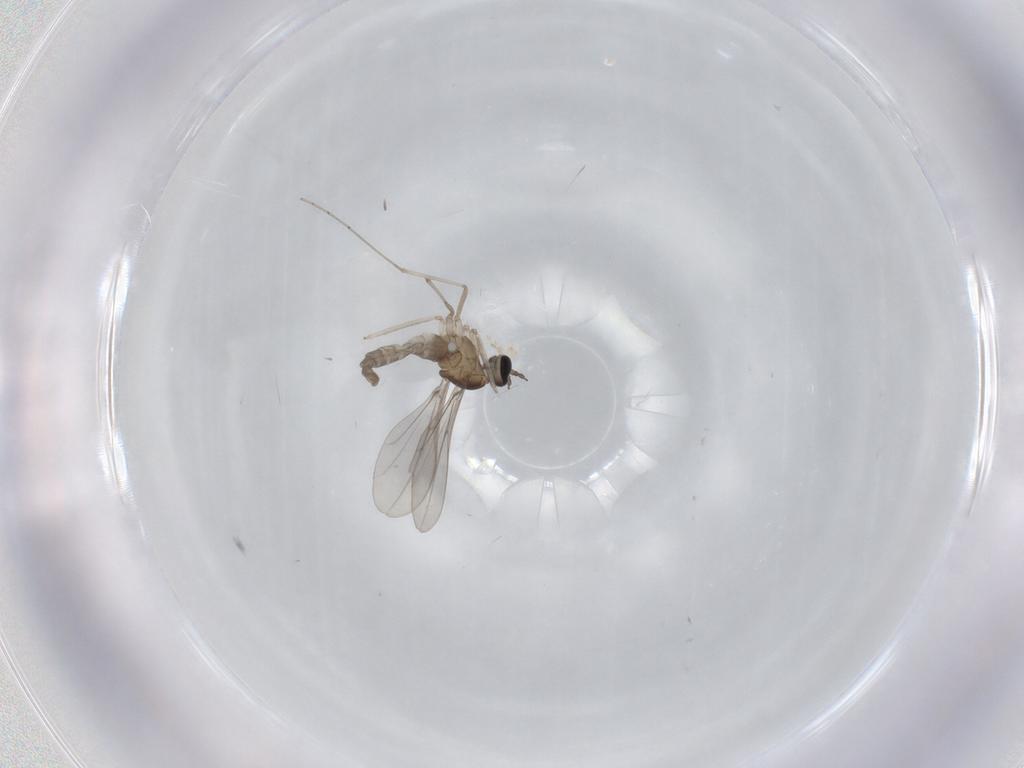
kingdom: Animalia
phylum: Arthropoda
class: Insecta
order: Diptera
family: Cecidomyiidae
